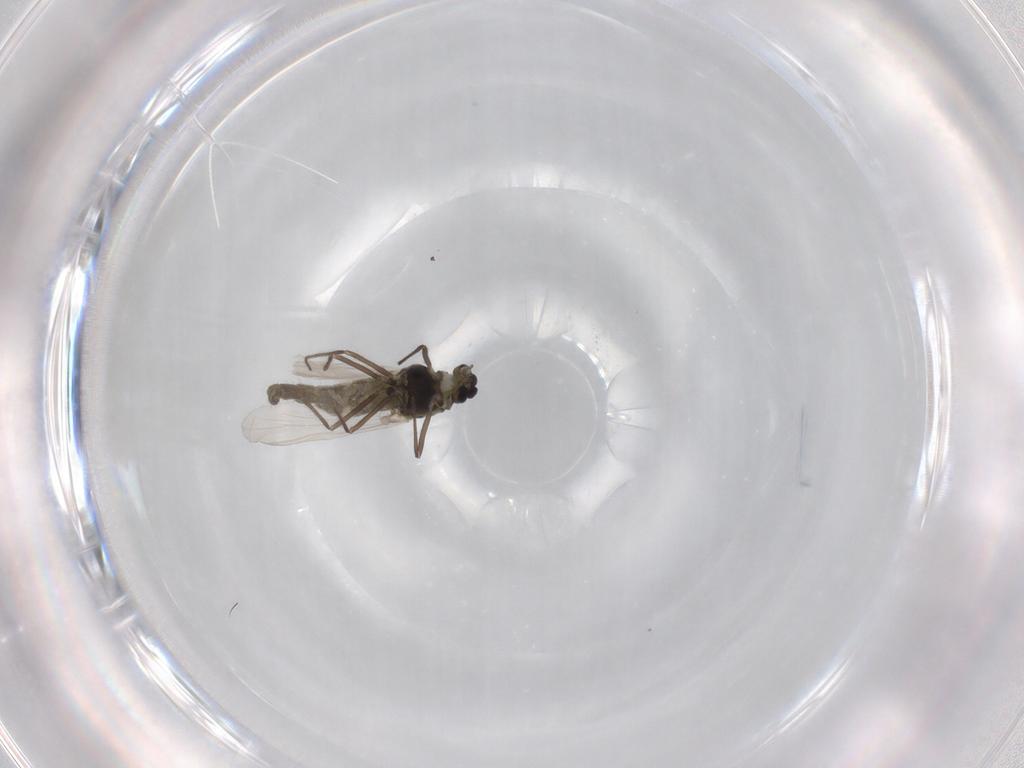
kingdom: Animalia
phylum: Arthropoda
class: Insecta
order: Diptera
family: Chironomidae
